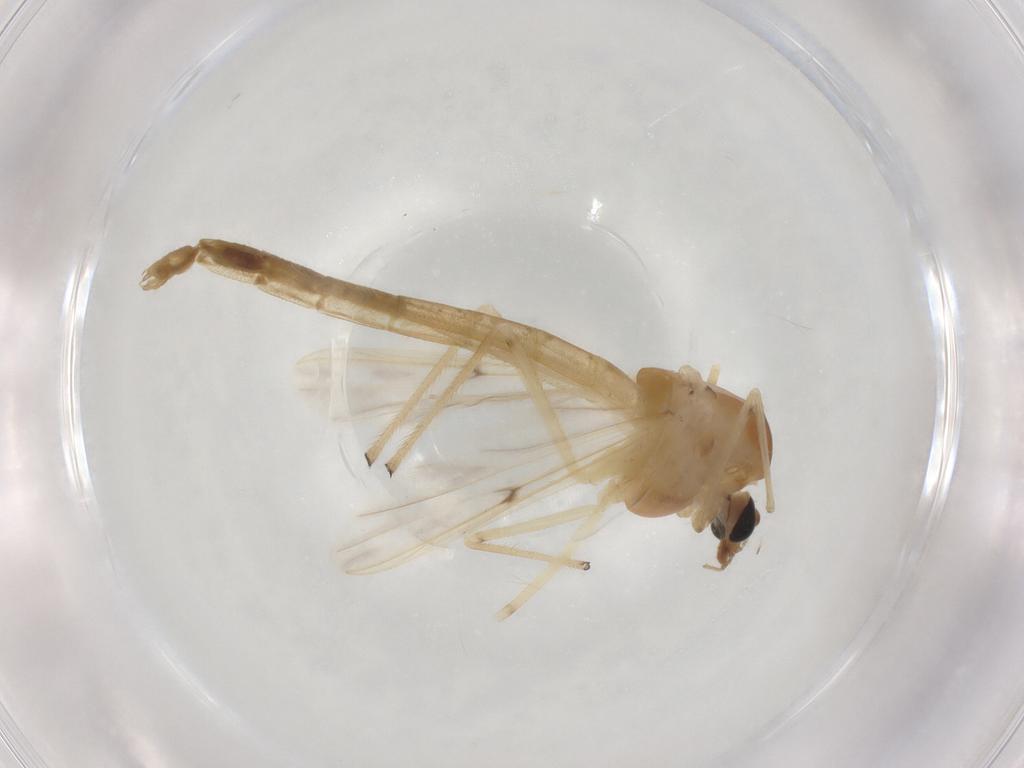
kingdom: Animalia
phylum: Arthropoda
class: Insecta
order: Diptera
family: Chironomidae
